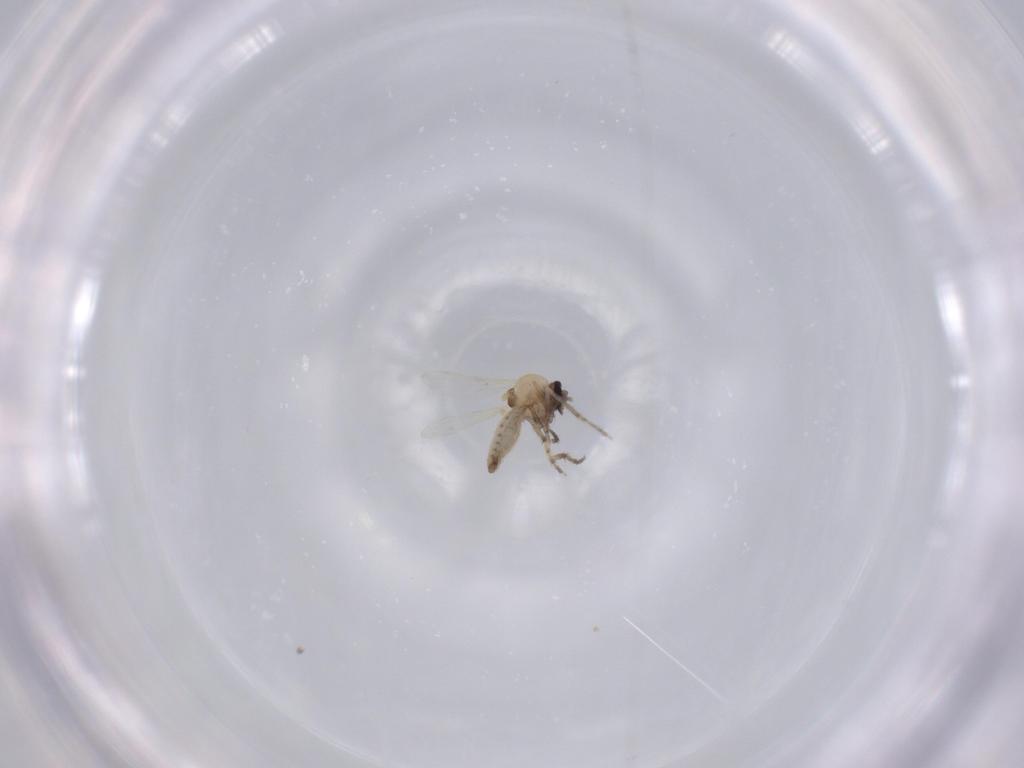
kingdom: Animalia
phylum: Arthropoda
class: Insecta
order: Diptera
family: Ceratopogonidae
